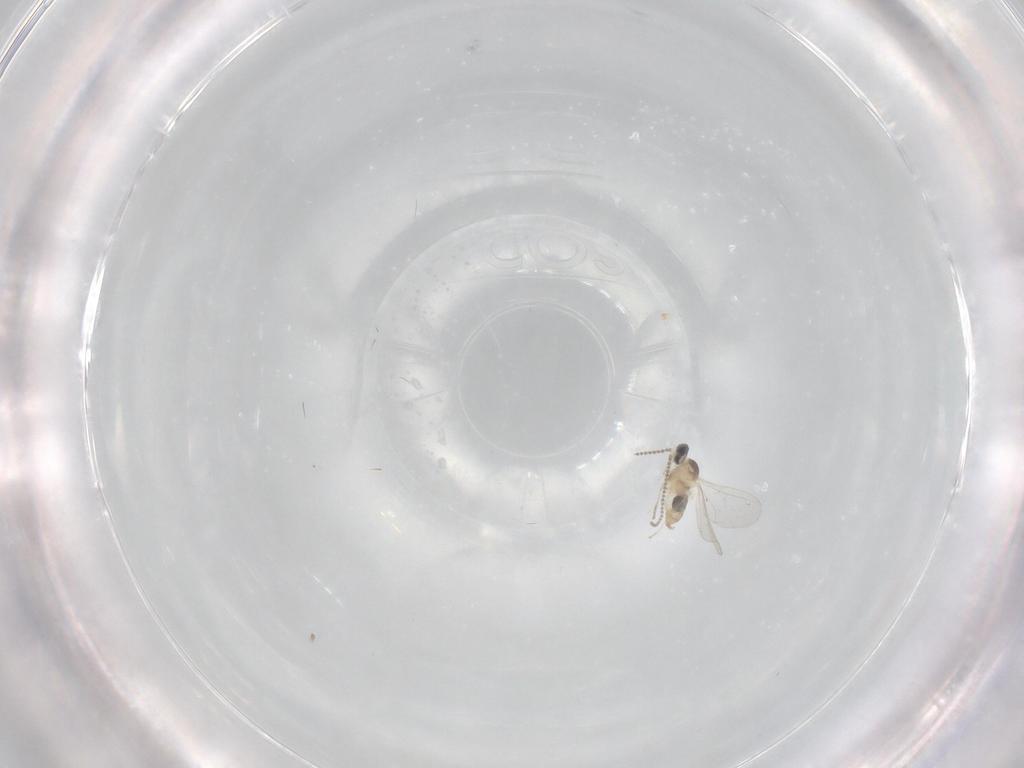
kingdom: Animalia
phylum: Arthropoda
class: Insecta
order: Diptera
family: Cecidomyiidae
